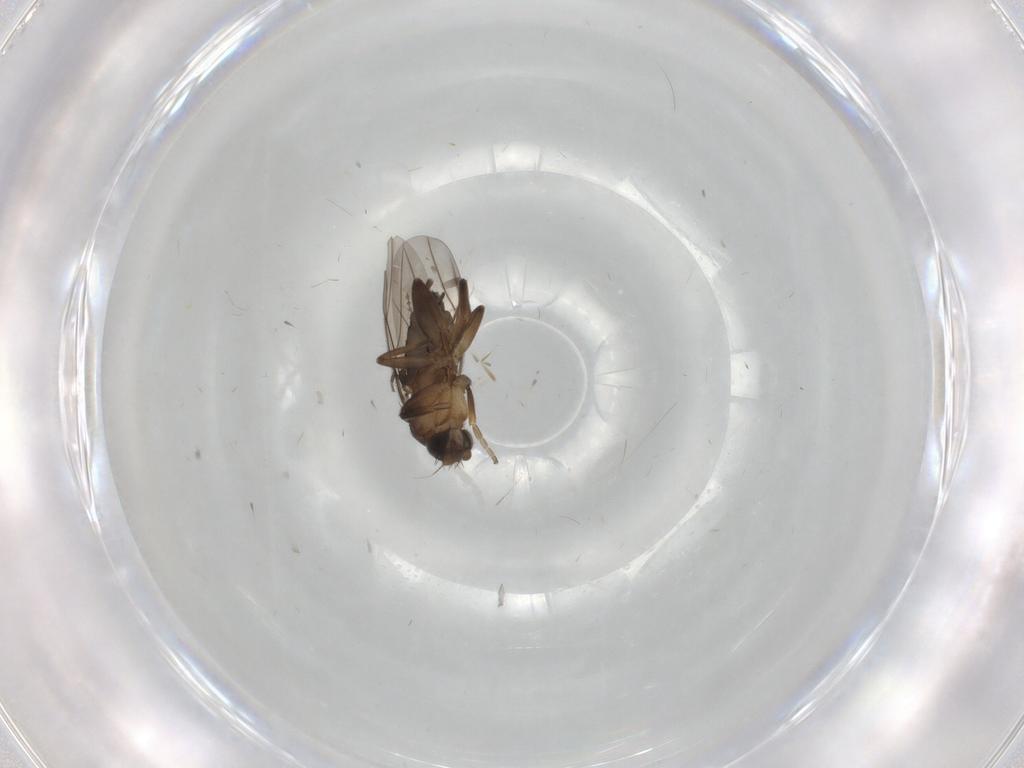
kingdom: Animalia
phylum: Arthropoda
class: Insecta
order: Diptera
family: Phoridae
